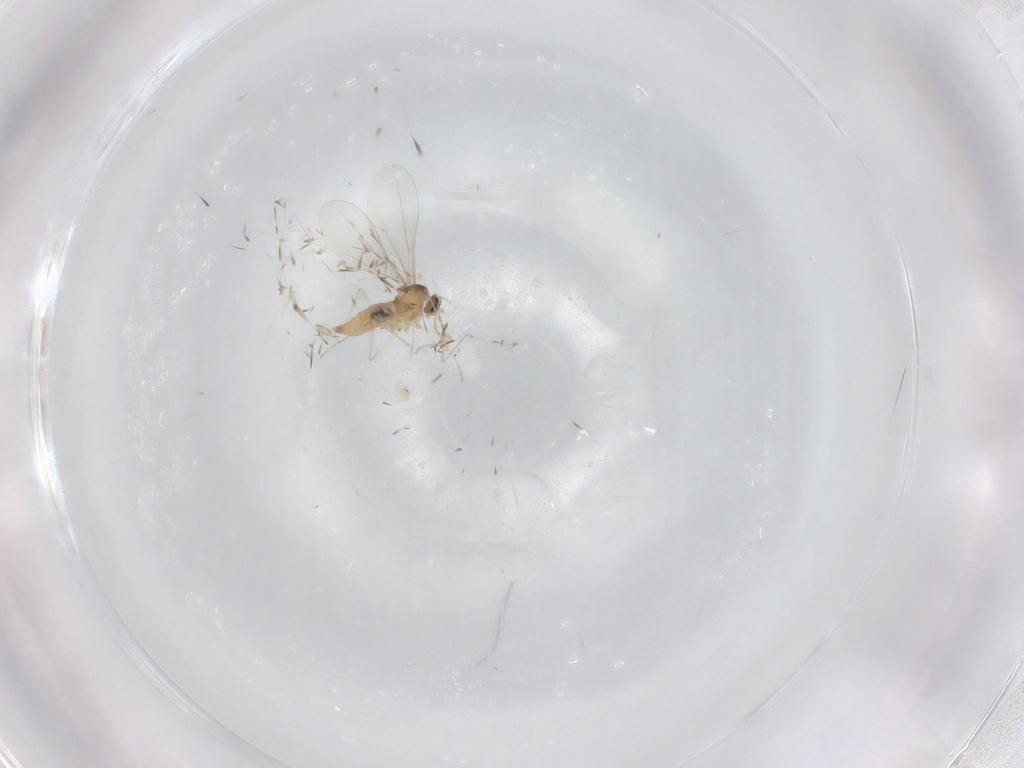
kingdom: Animalia
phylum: Arthropoda
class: Insecta
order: Diptera
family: Cecidomyiidae
